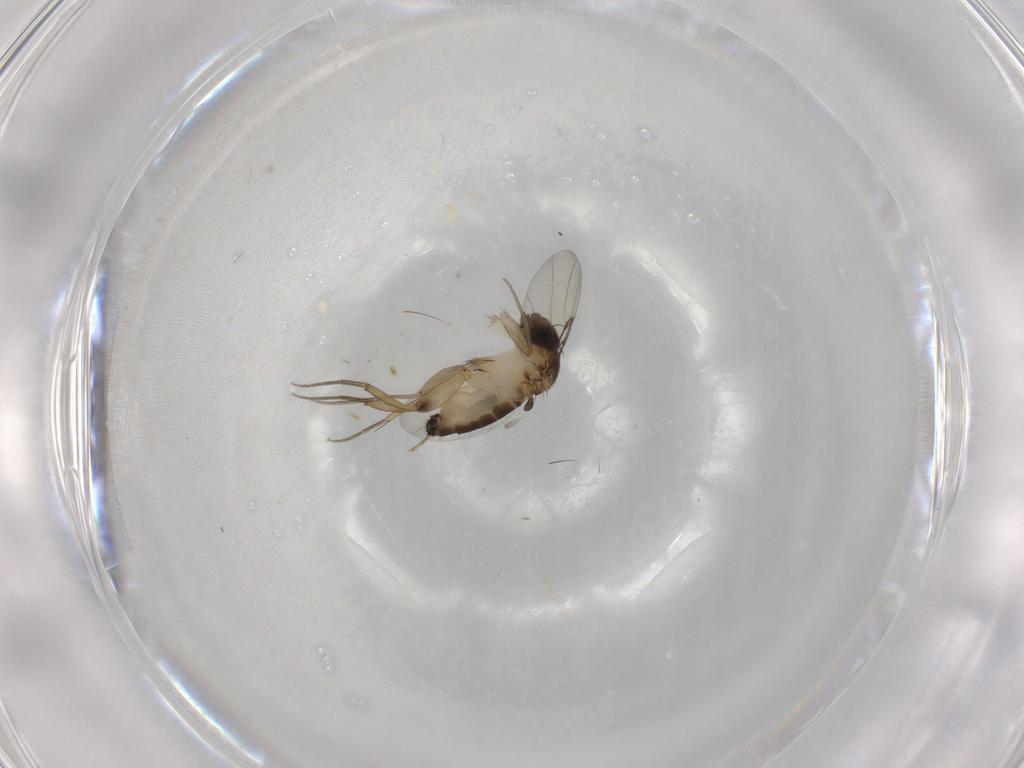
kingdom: Animalia
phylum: Arthropoda
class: Insecta
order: Diptera
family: Phoridae
